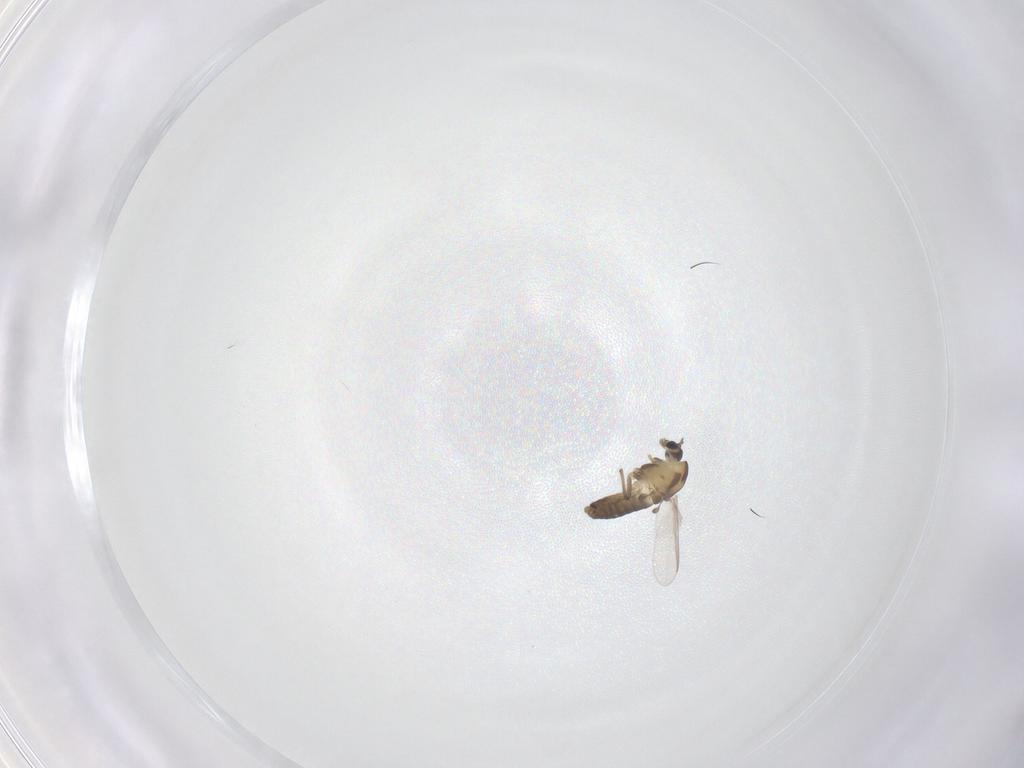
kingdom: Animalia
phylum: Arthropoda
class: Insecta
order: Diptera
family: Chironomidae
